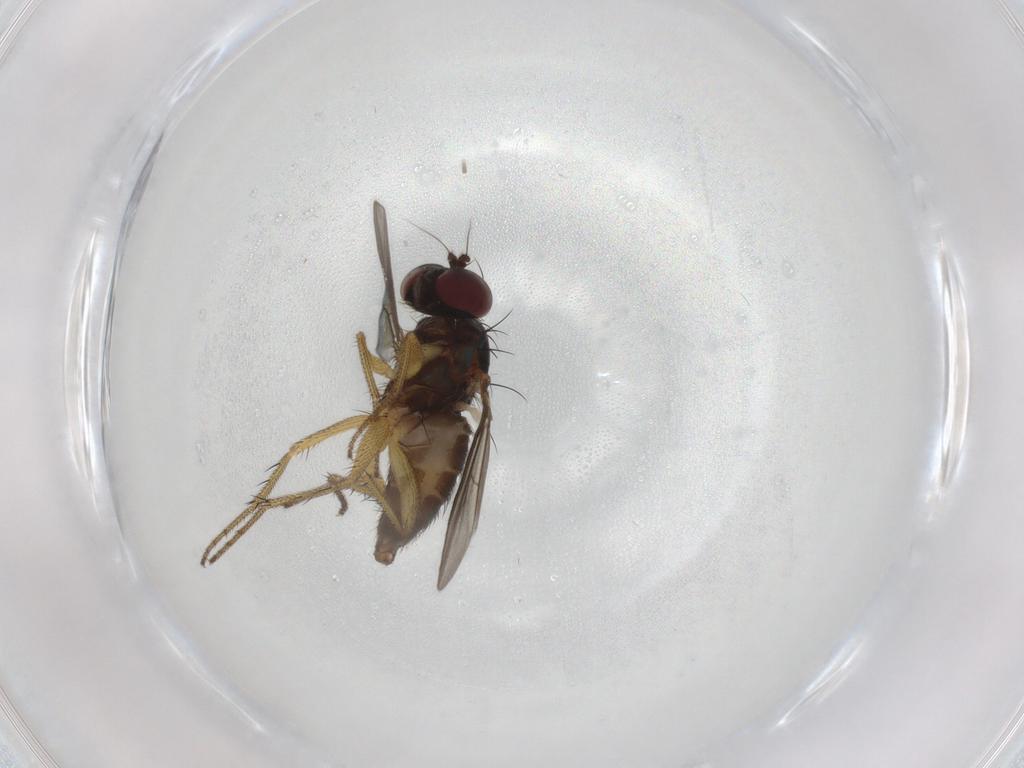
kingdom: Animalia
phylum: Arthropoda
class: Insecta
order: Diptera
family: Dolichopodidae
